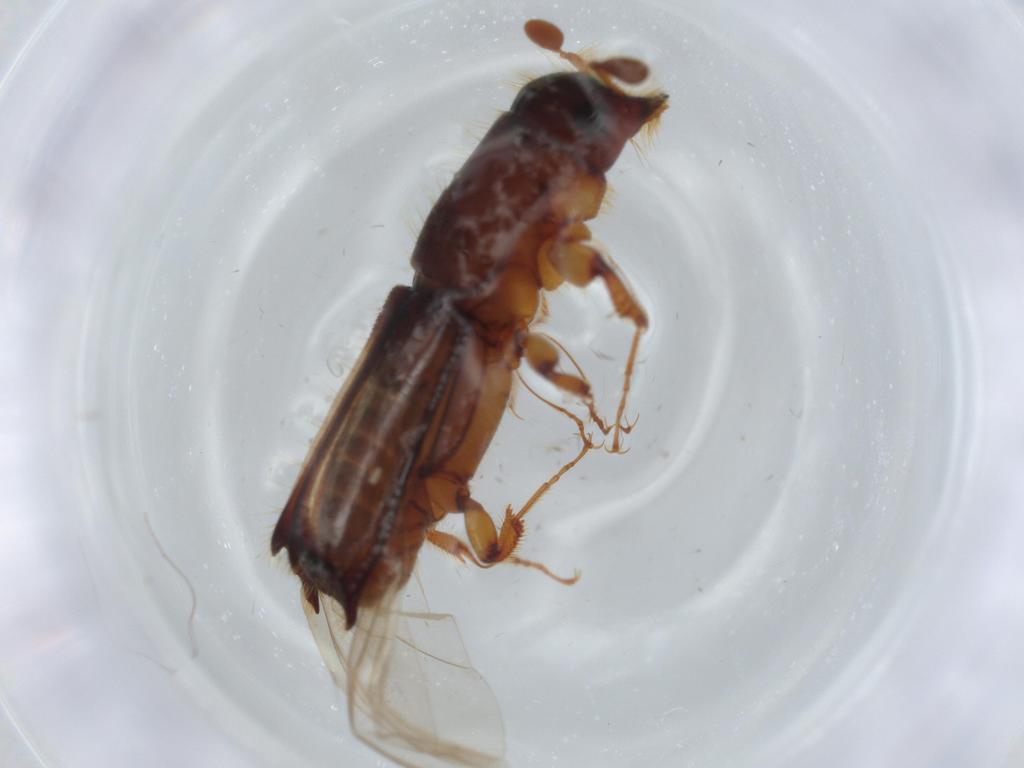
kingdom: Animalia
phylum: Arthropoda
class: Insecta
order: Coleoptera
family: Curculionidae
